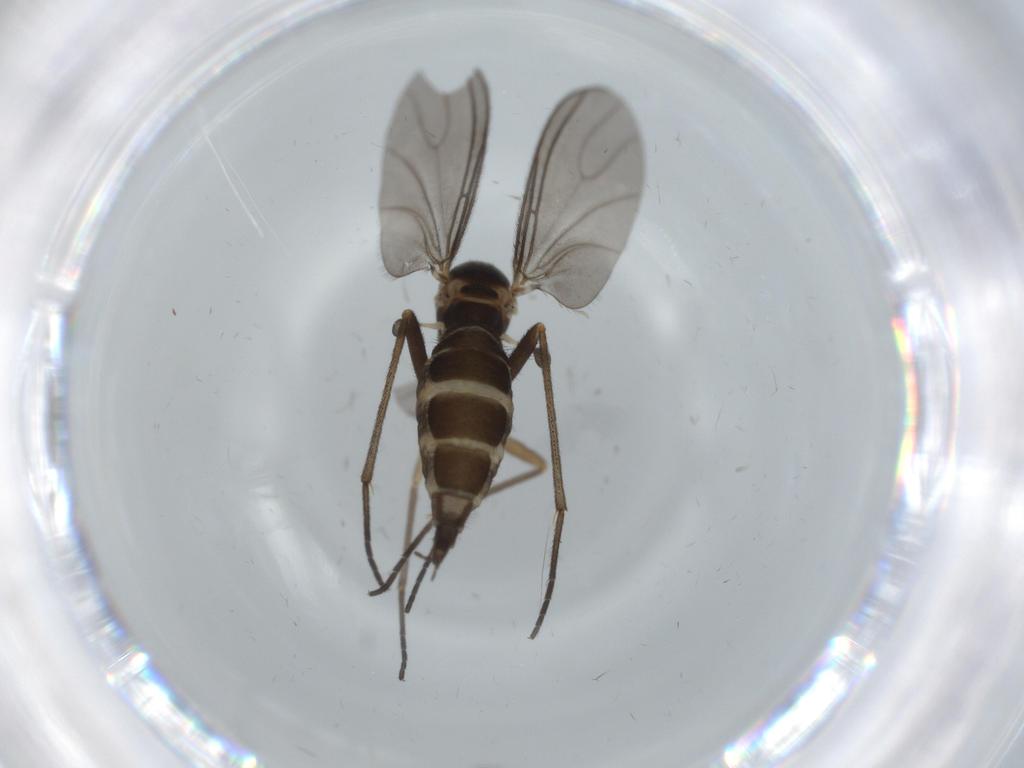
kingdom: Animalia
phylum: Arthropoda
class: Insecta
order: Diptera
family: Sciaridae
